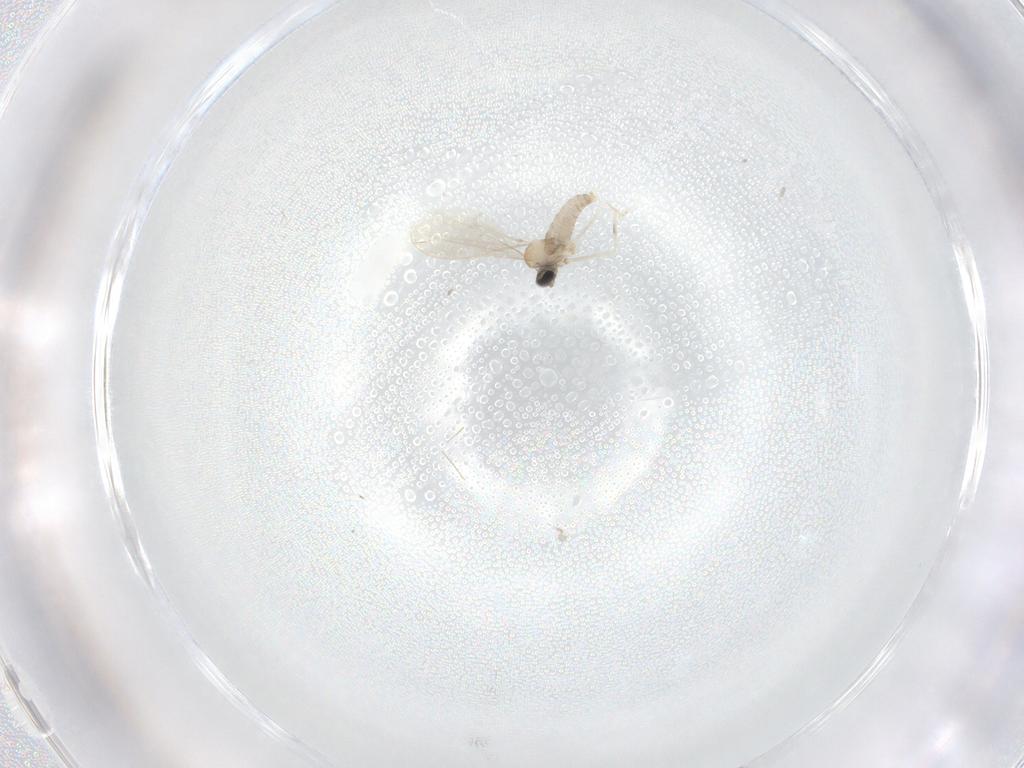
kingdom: Animalia
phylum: Arthropoda
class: Insecta
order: Diptera
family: Cecidomyiidae
